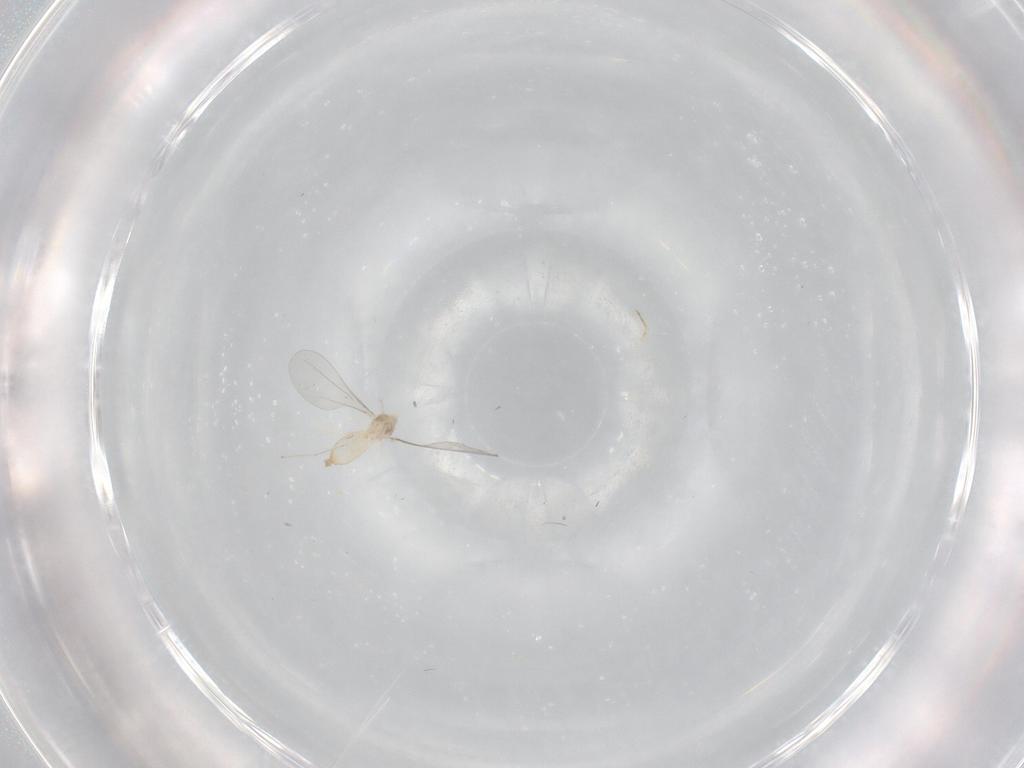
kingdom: Animalia
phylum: Arthropoda
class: Insecta
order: Diptera
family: Cecidomyiidae
